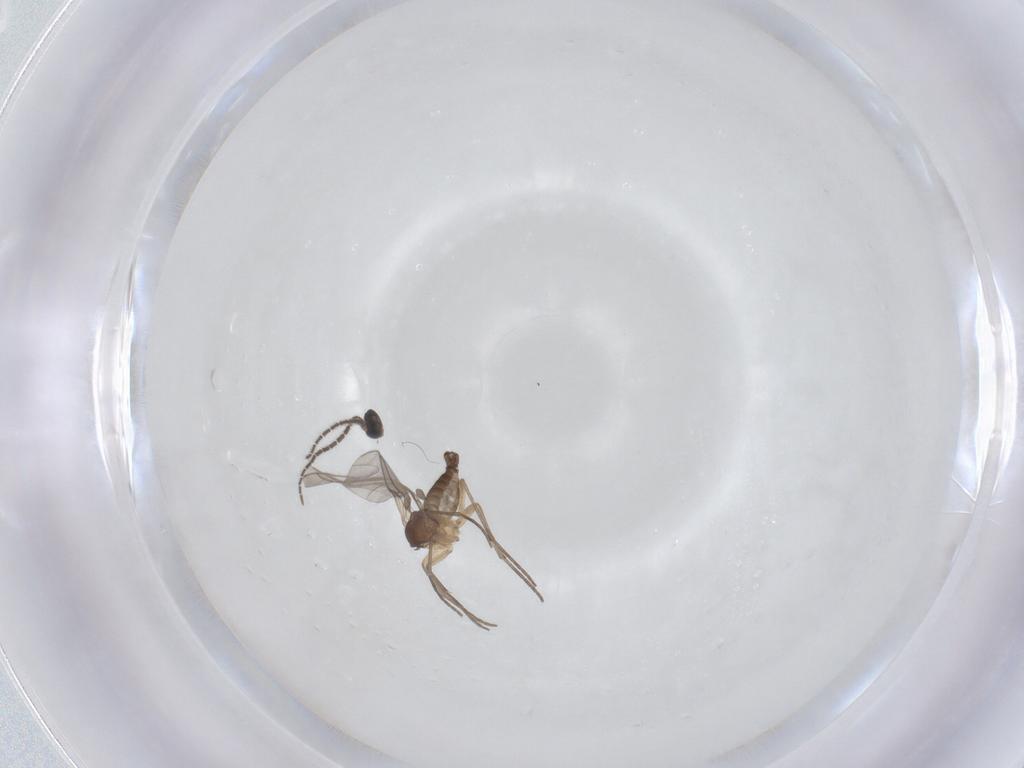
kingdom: Animalia
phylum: Arthropoda
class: Insecta
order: Diptera
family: Sciaridae
